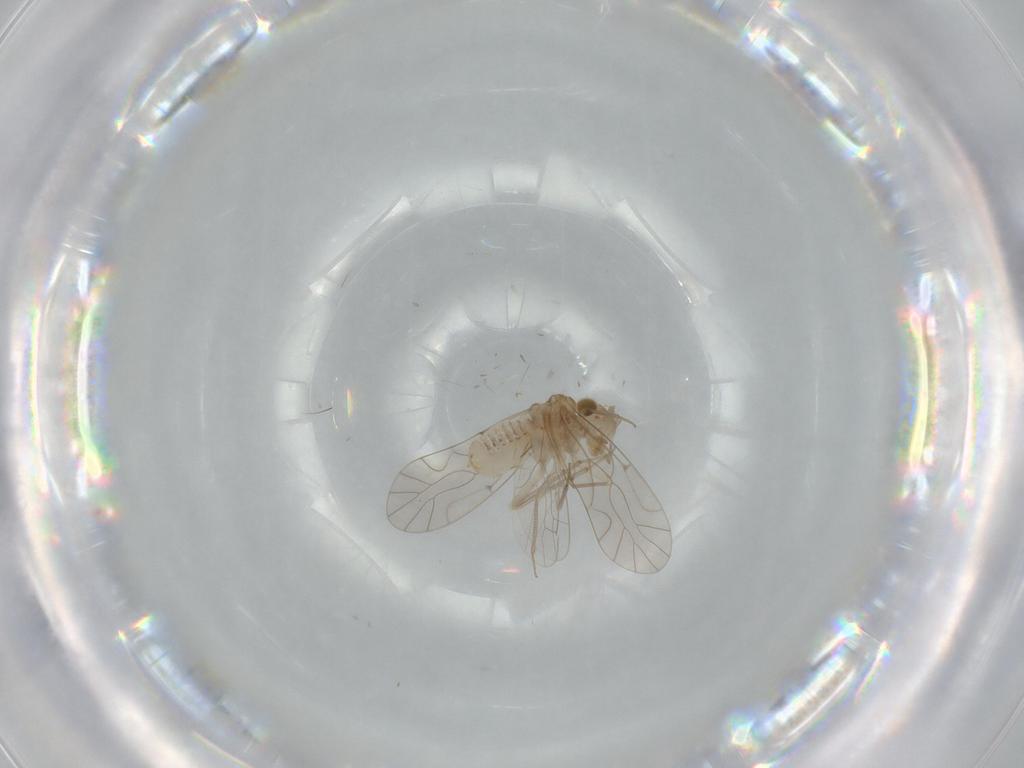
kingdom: Animalia
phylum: Arthropoda
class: Insecta
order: Psocodea
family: Lachesillidae
